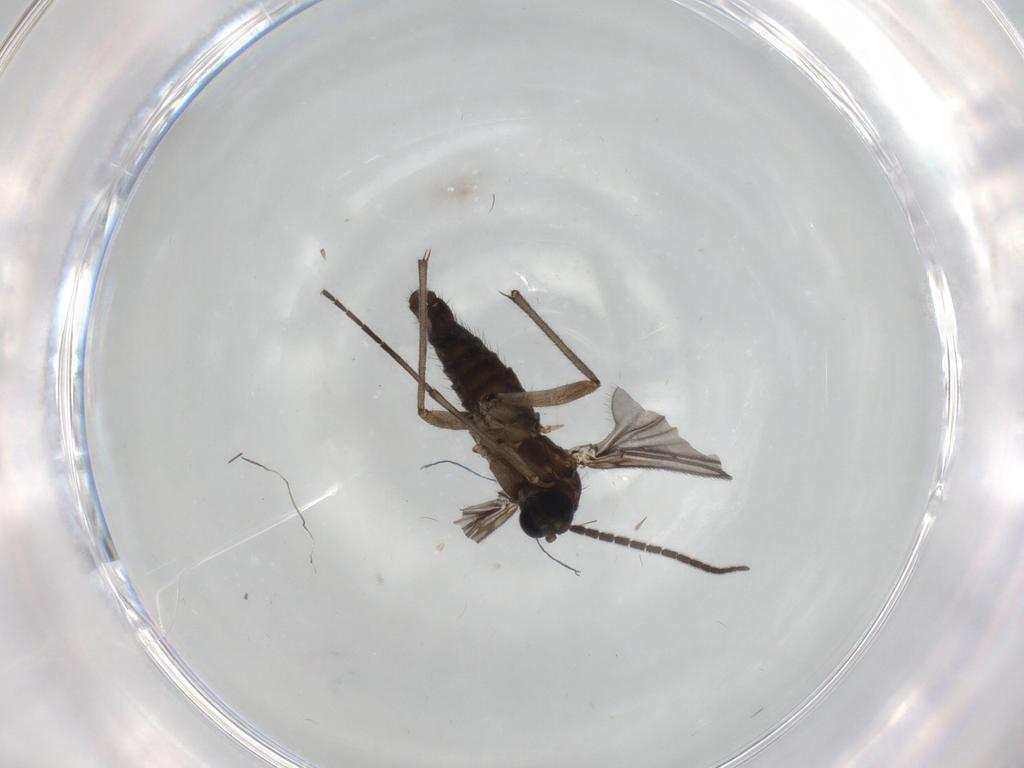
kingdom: Animalia
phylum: Arthropoda
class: Insecta
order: Diptera
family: Sciaridae
